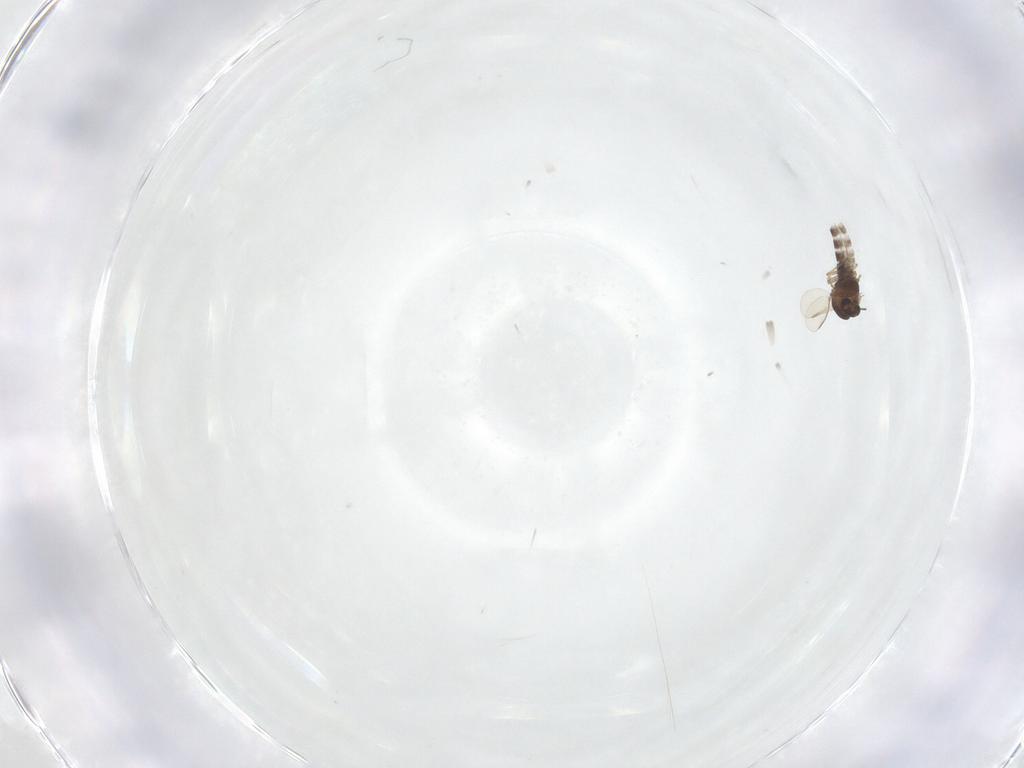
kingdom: Animalia
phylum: Arthropoda
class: Insecta
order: Diptera
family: Chironomidae
